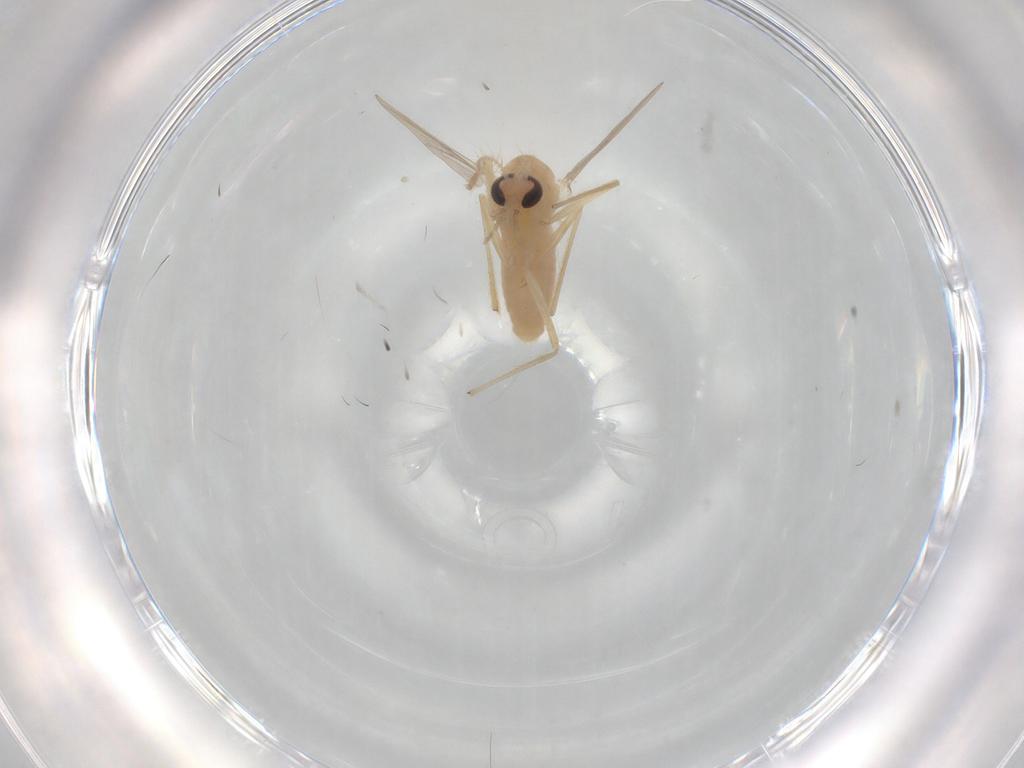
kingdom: Animalia
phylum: Arthropoda
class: Insecta
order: Diptera
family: Chironomidae
